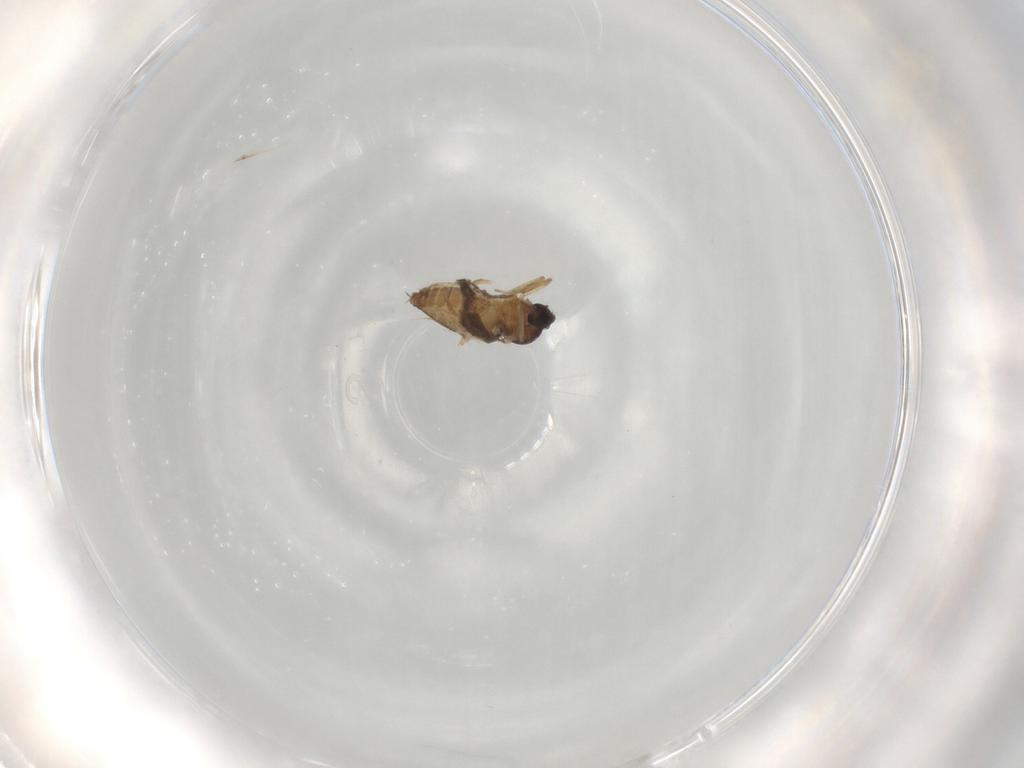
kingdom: Animalia
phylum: Arthropoda
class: Insecta
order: Diptera
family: Ceratopogonidae
